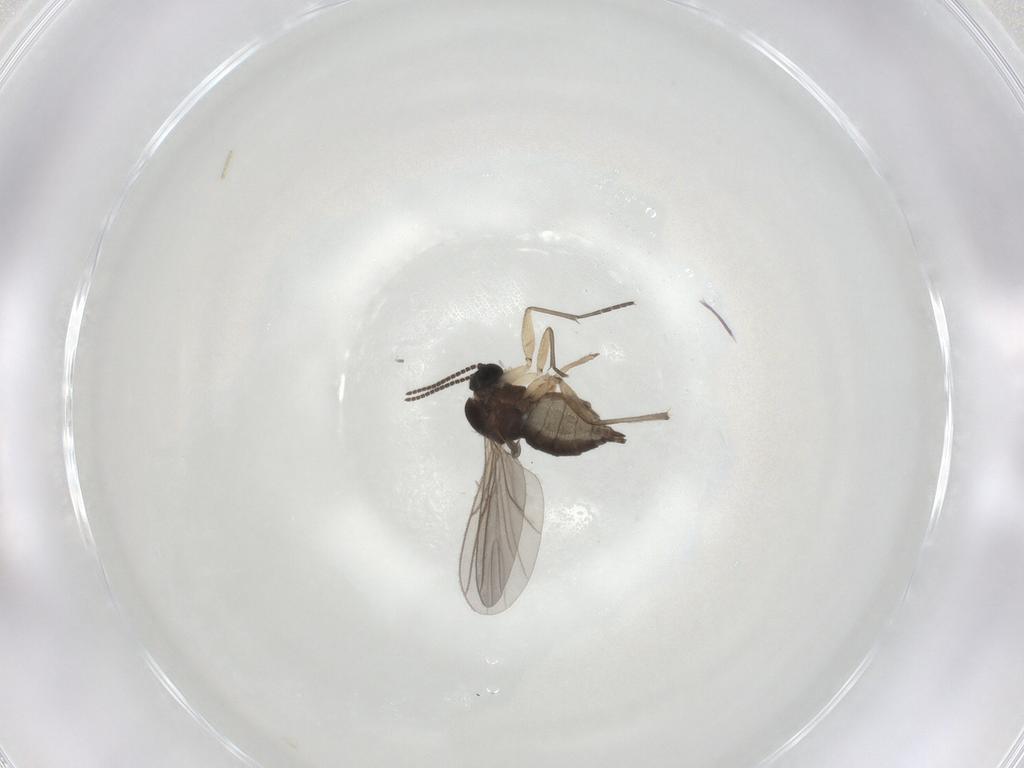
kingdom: Animalia
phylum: Arthropoda
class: Insecta
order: Diptera
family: Sciaridae
